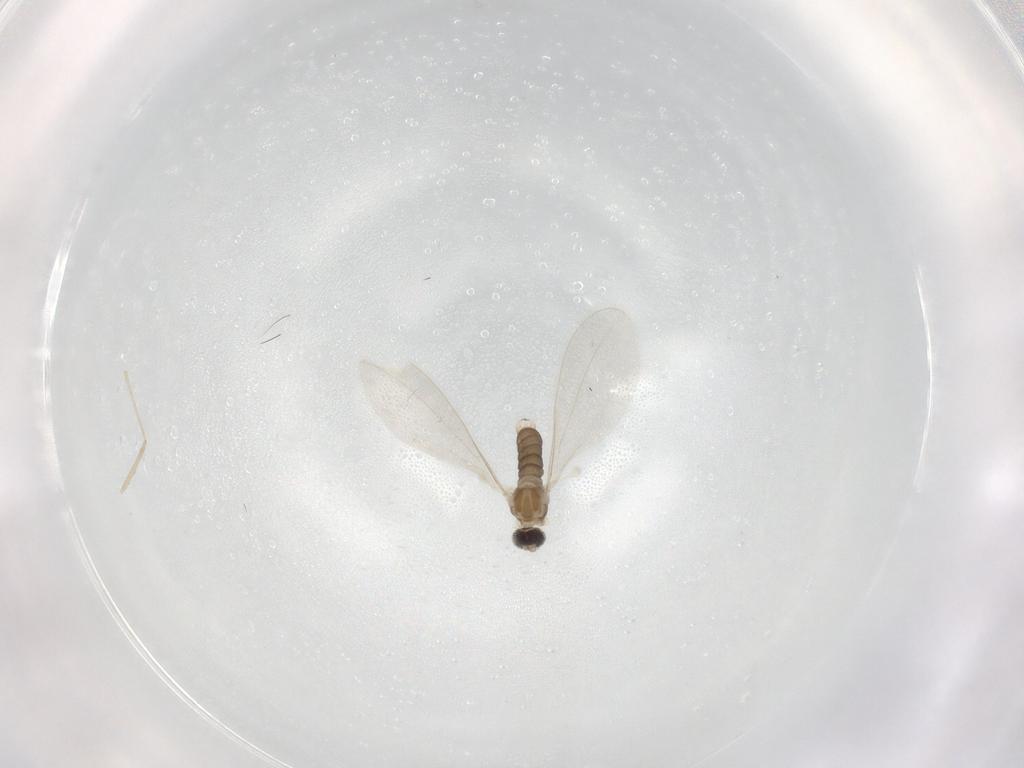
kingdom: Animalia
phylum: Arthropoda
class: Insecta
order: Diptera
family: Cecidomyiidae
